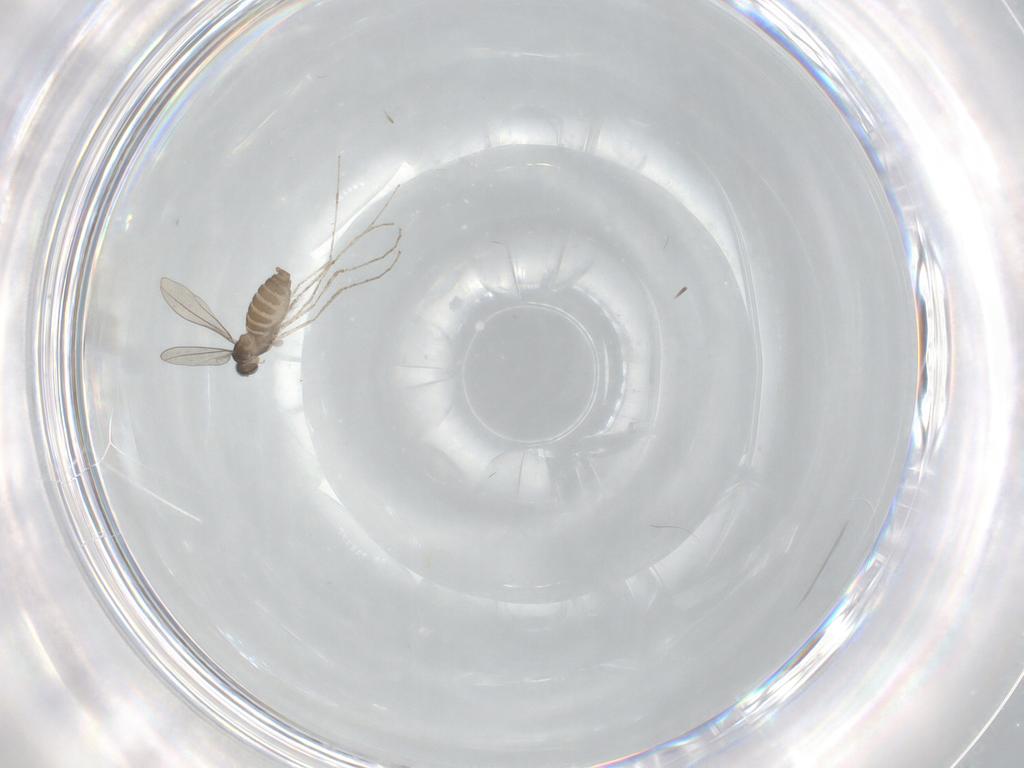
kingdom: Animalia
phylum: Arthropoda
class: Insecta
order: Diptera
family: Cecidomyiidae
